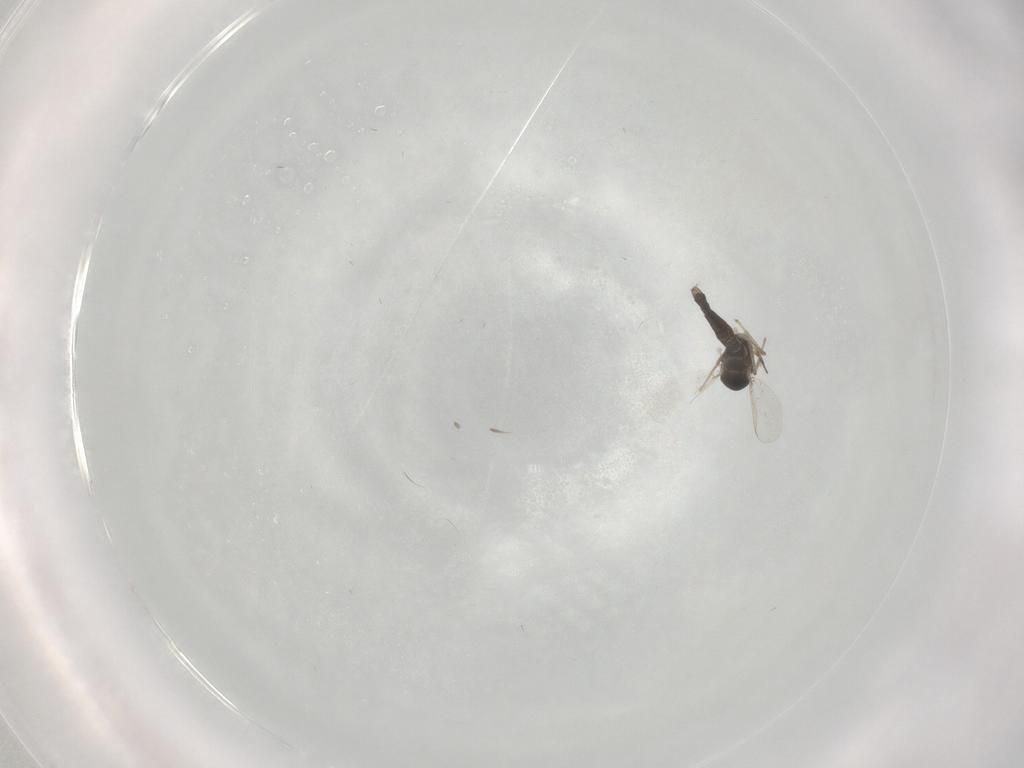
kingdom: Animalia
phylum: Arthropoda
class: Insecta
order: Diptera
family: Chironomidae
